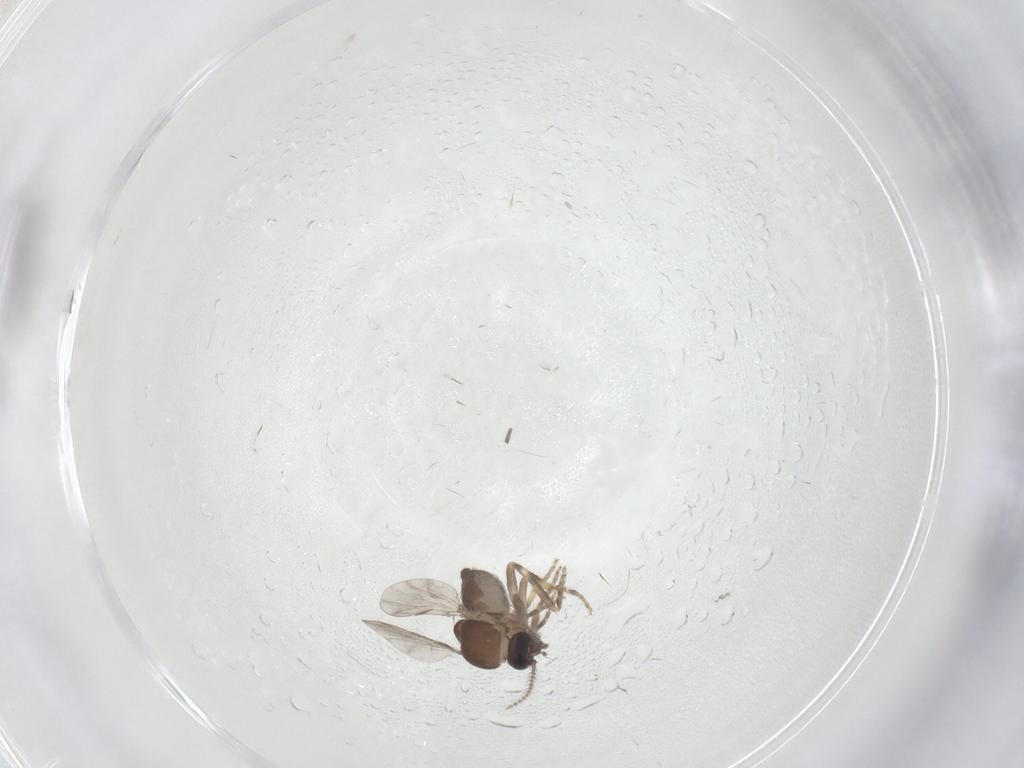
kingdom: Animalia
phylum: Arthropoda
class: Insecta
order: Diptera
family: Ceratopogonidae
